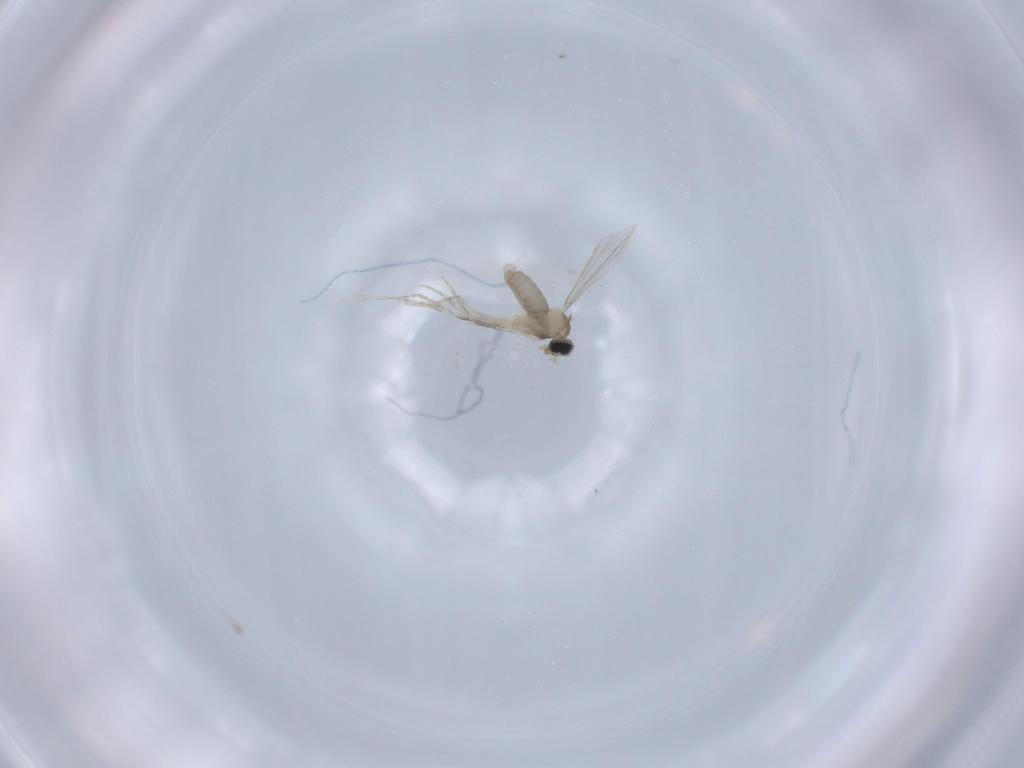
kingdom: Animalia
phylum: Arthropoda
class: Insecta
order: Diptera
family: Cecidomyiidae
